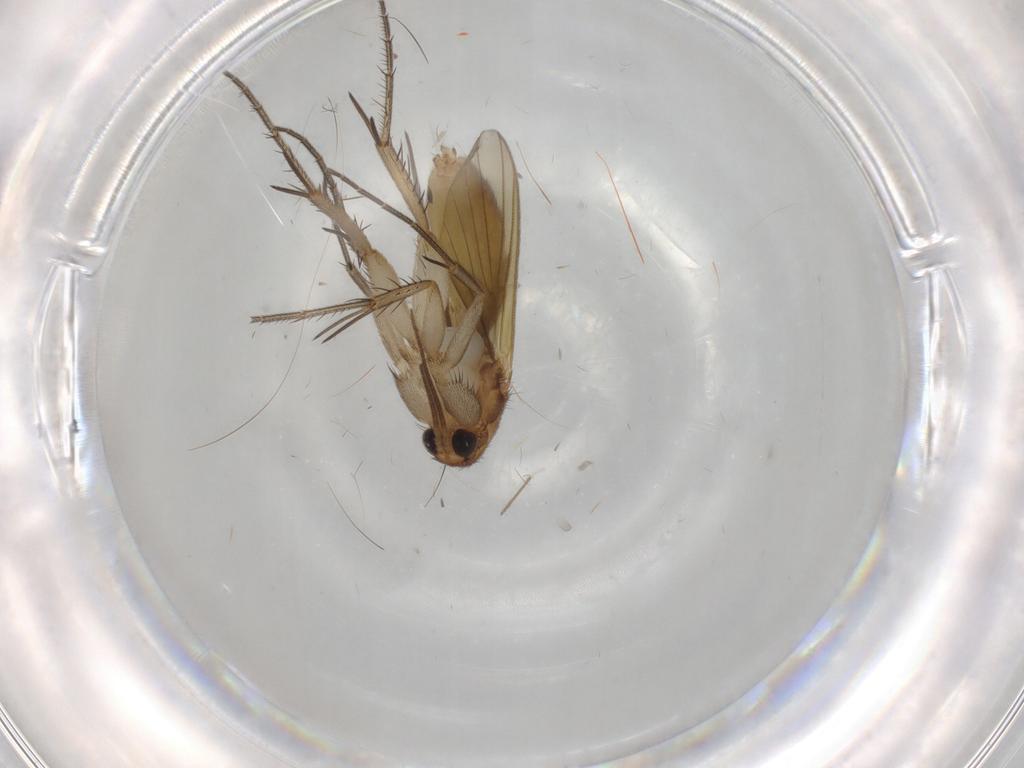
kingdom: Animalia
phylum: Arthropoda
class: Insecta
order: Diptera
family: Mycetophilidae
